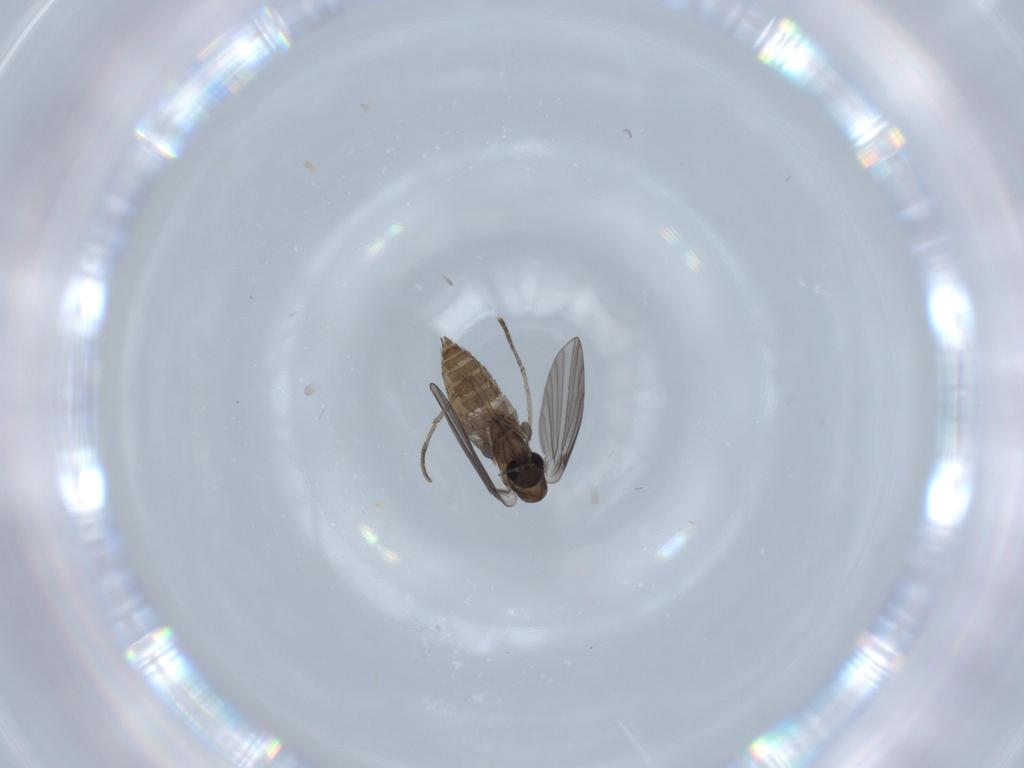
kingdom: Animalia
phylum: Arthropoda
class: Insecta
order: Diptera
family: Psychodidae
